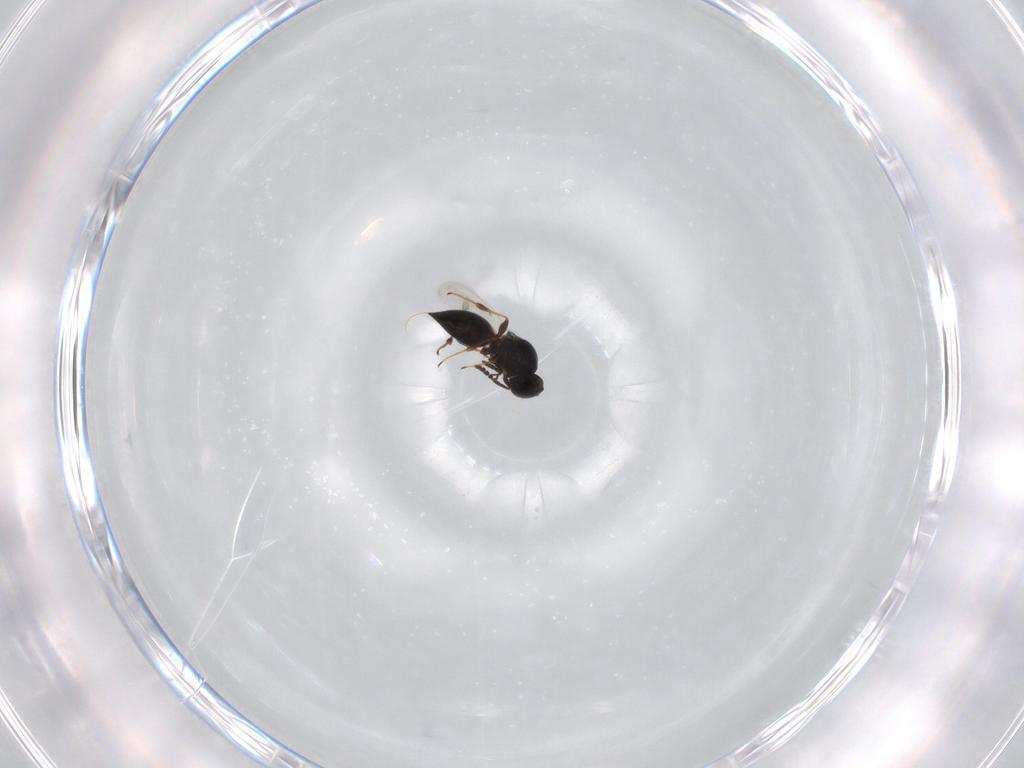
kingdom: Animalia
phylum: Arthropoda
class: Insecta
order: Hymenoptera
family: Platygastridae
